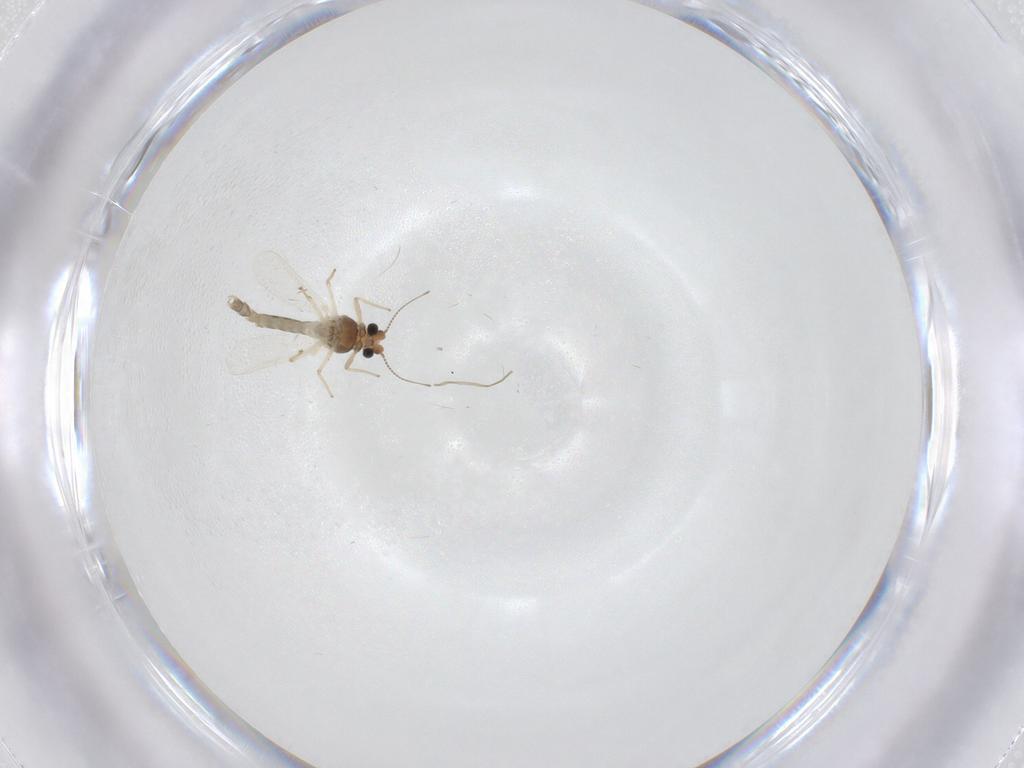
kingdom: Animalia
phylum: Arthropoda
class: Insecta
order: Diptera
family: Chironomidae
